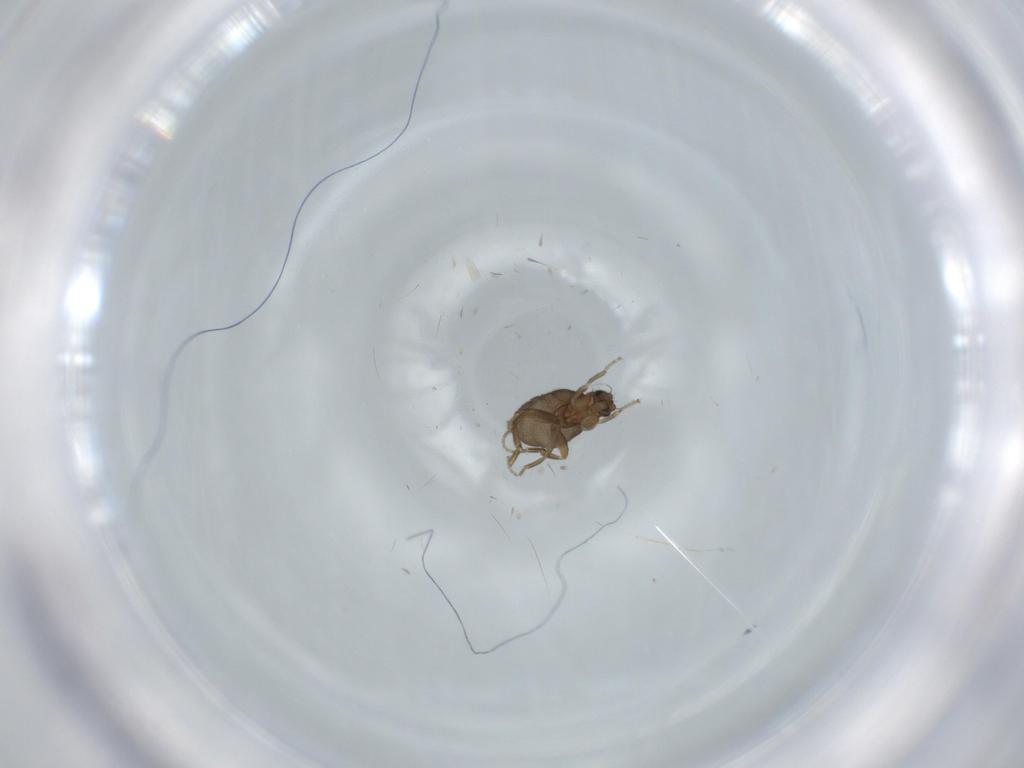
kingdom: Animalia
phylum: Arthropoda
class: Insecta
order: Diptera
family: Phoridae
